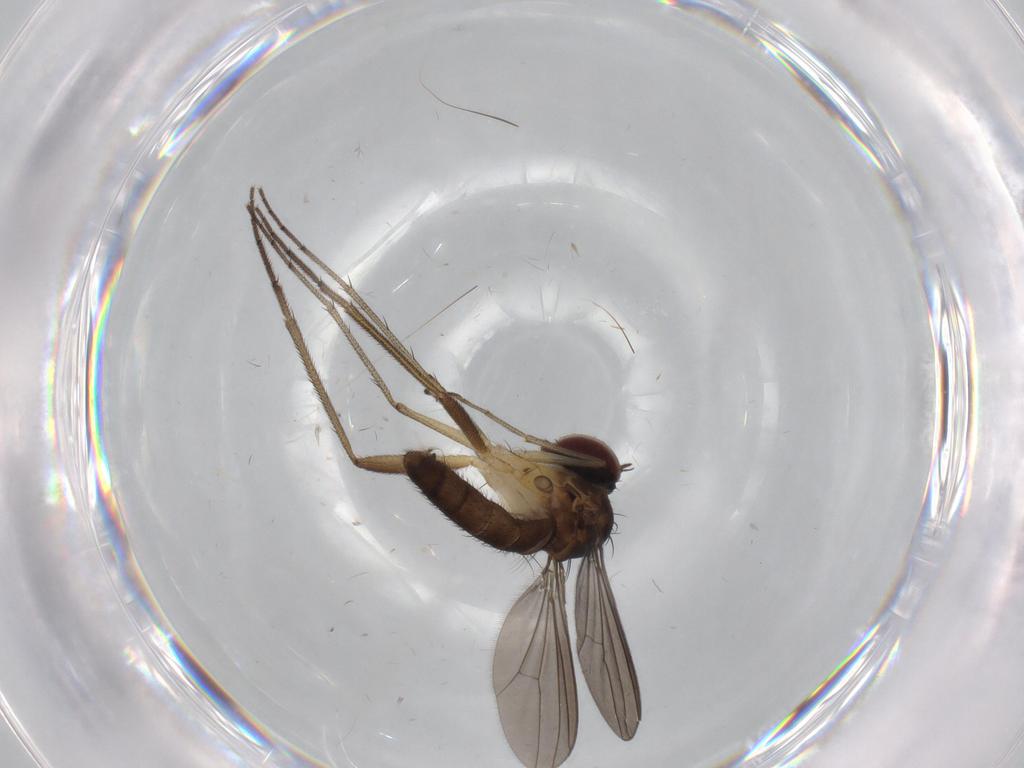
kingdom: Animalia
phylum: Arthropoda
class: Insecta
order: Diptera
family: Dolichopodidae
